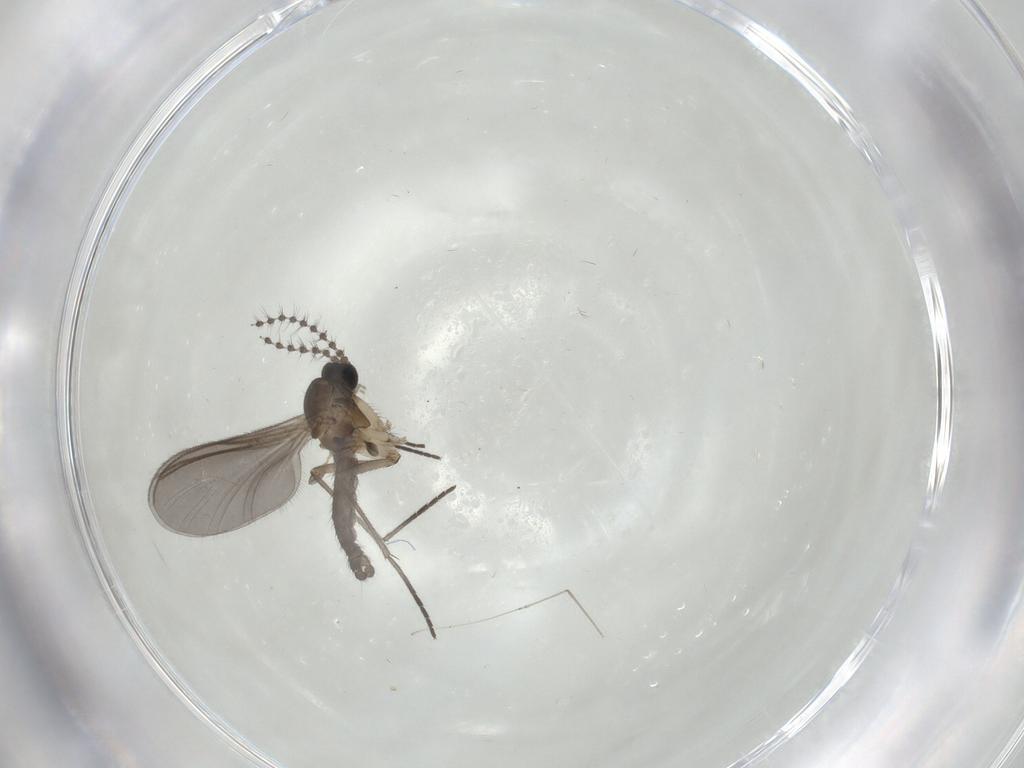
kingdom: Animalia
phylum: Arthropoda
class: Insecta
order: Diptera
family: Sciaridae
